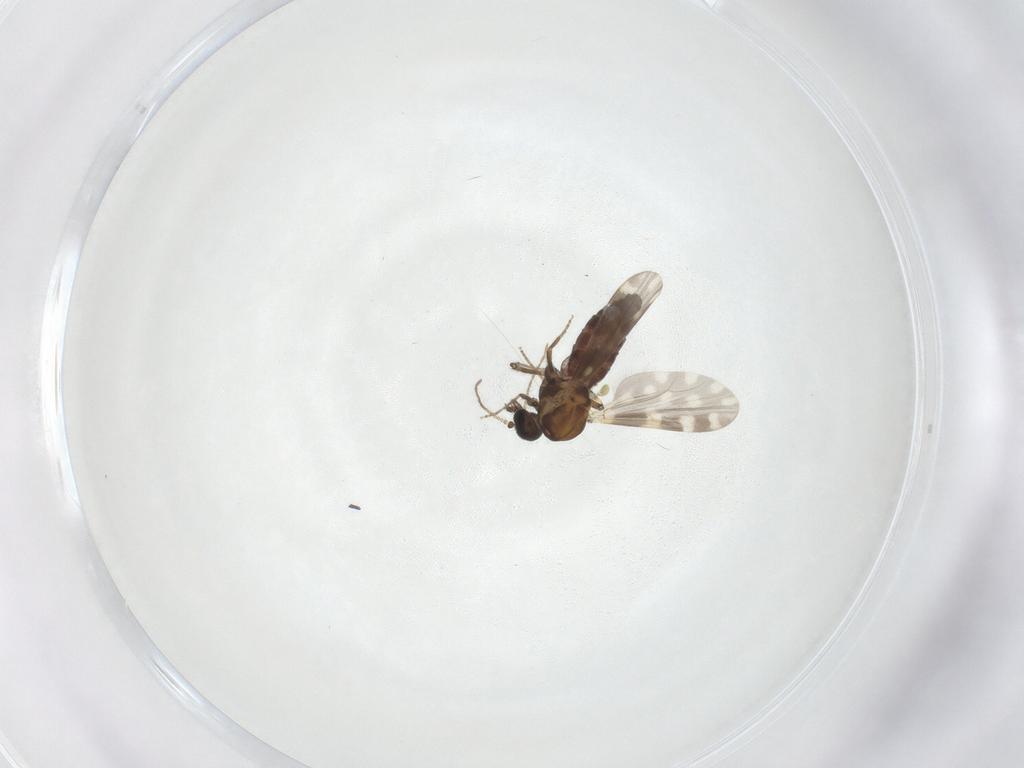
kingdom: Animalia
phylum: Arthropoda
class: Insecta
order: Diptera
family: Ceratopogonidae
